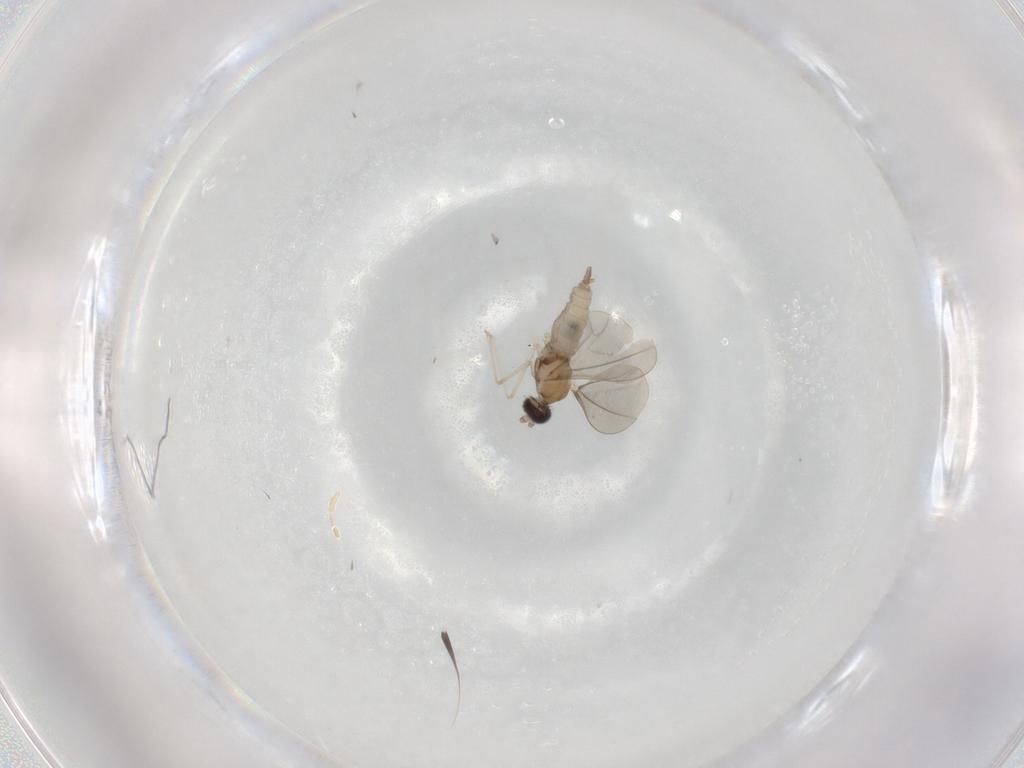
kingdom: Animalia
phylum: Arthropoda
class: Insecta
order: Diptera
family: Cecidomyiidae
